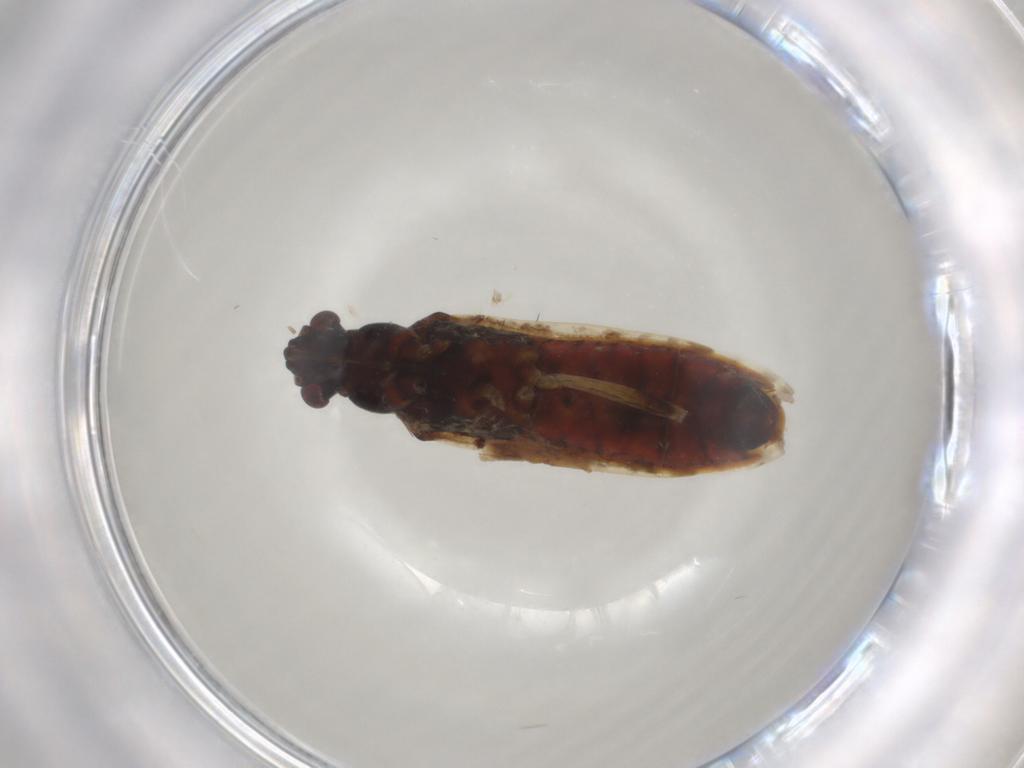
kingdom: Animalia
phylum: Arthropoda
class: Insecta
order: Hemiptera
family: Rhyparochromidae
